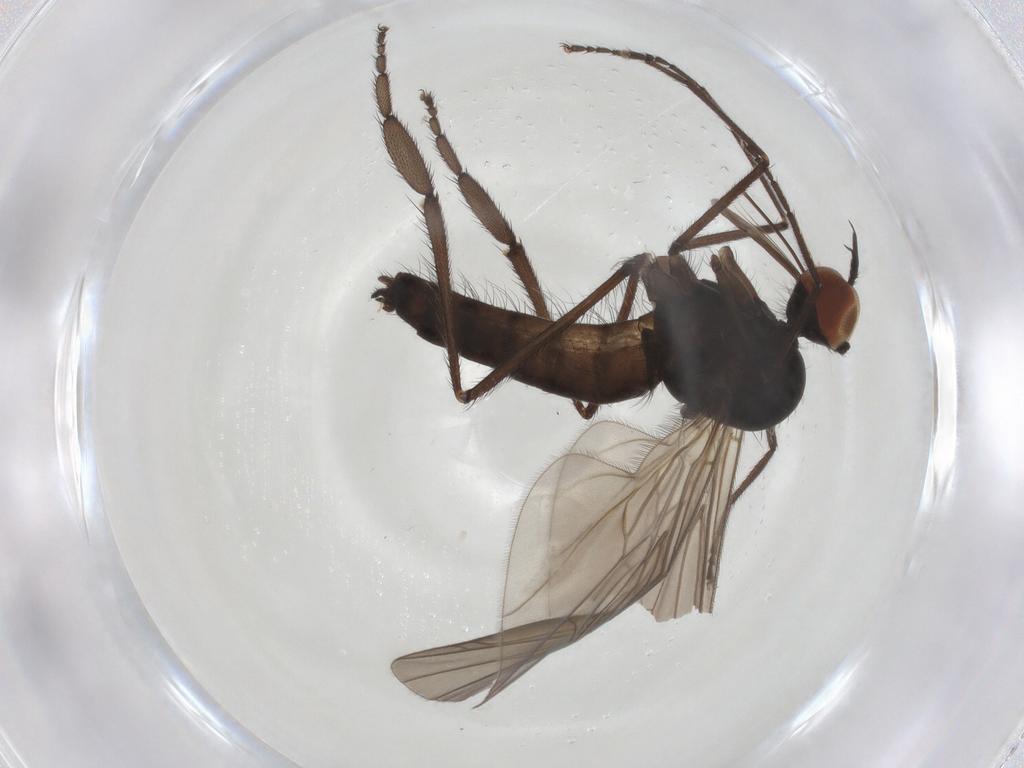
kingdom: Animalia
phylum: Arthropoda
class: Insecta
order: Diptera
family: Empididae
